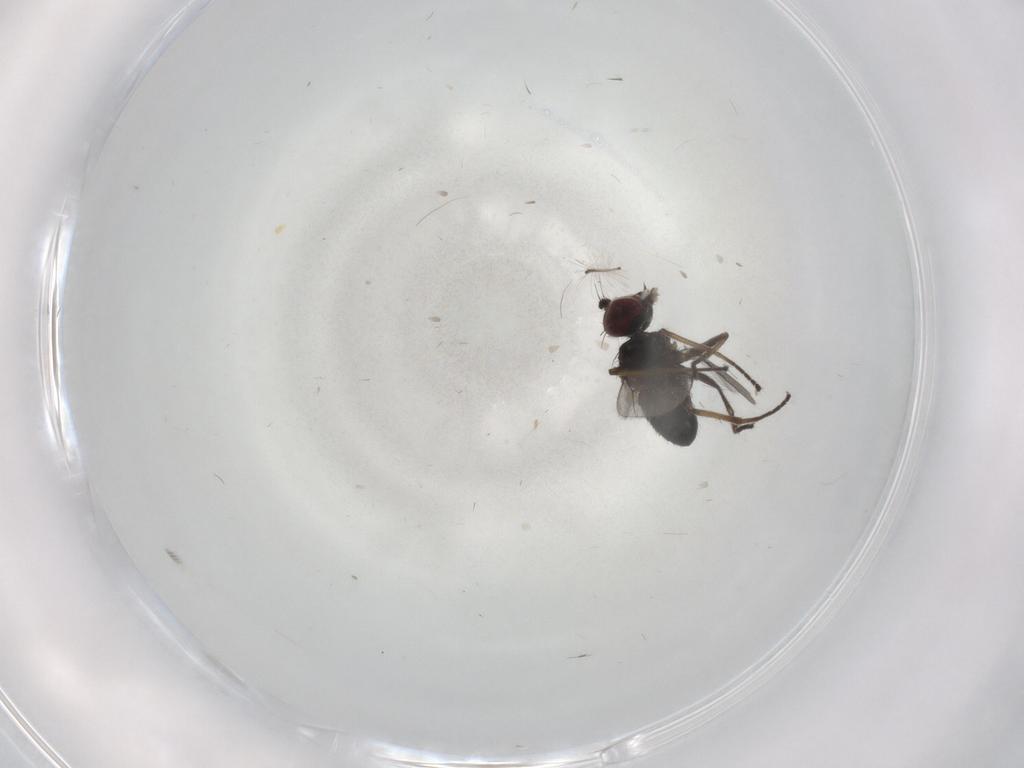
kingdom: Animalia
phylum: Arthropoda
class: Insecta
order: Diptera
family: Dolichopodidae
